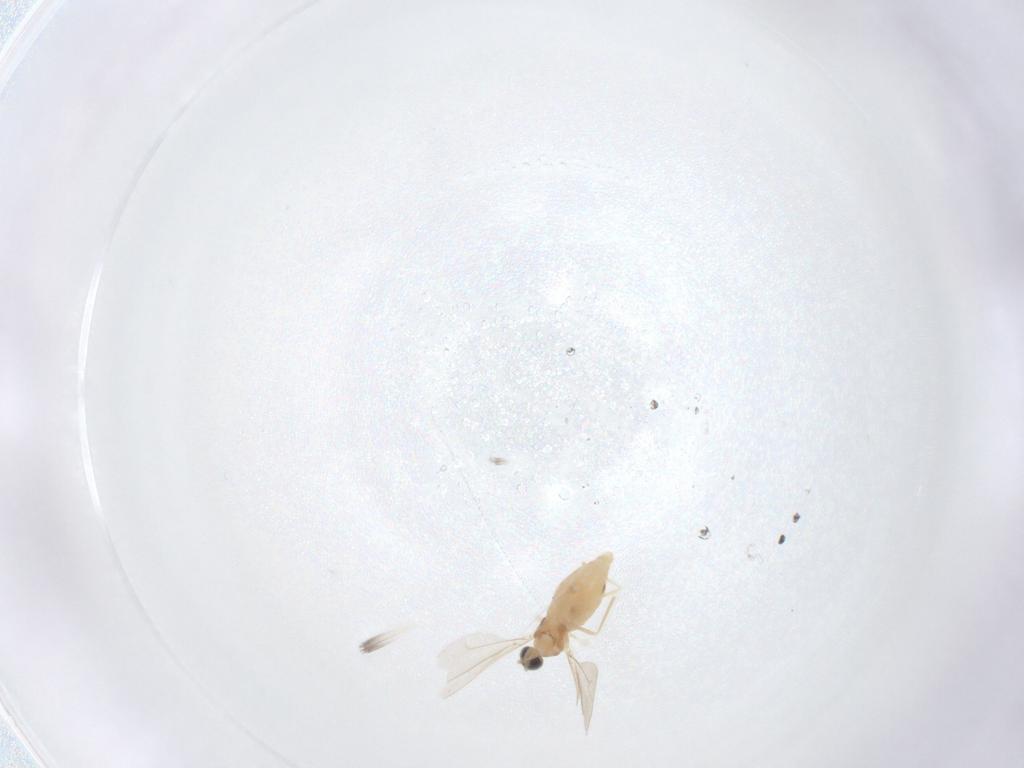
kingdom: Animalia
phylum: Arthropoda
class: Insecta
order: Diptera
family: Cecidomyiidae
